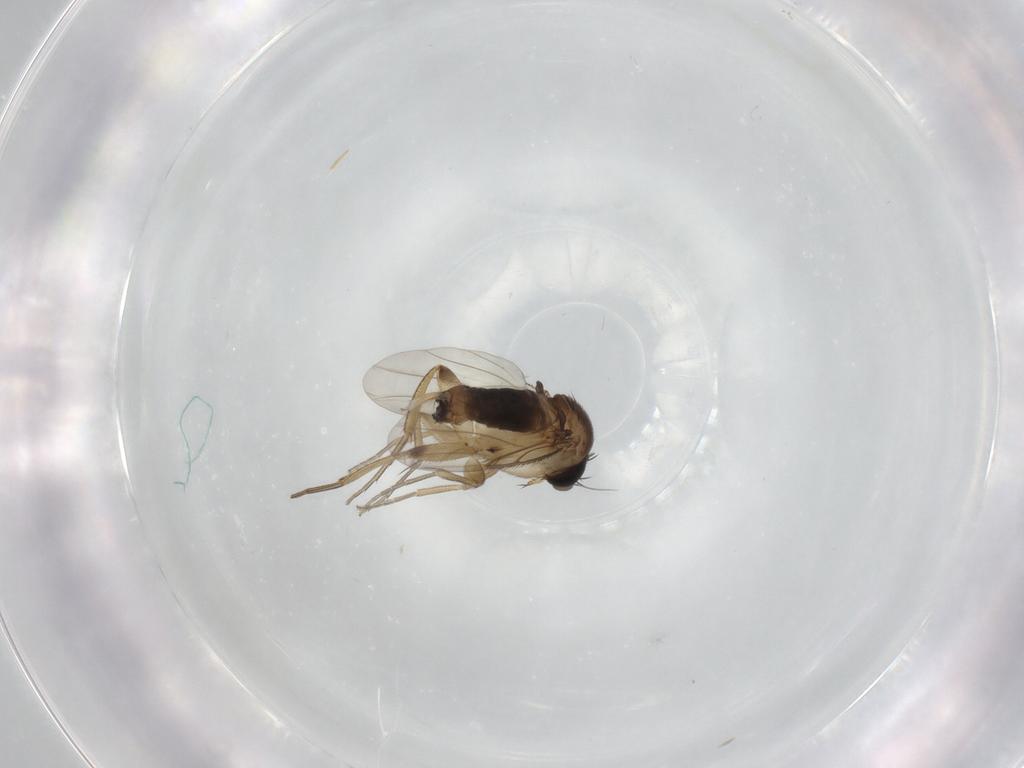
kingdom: Animalia
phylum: Arthropoda
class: Insecta
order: Diptera
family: Phoridae
